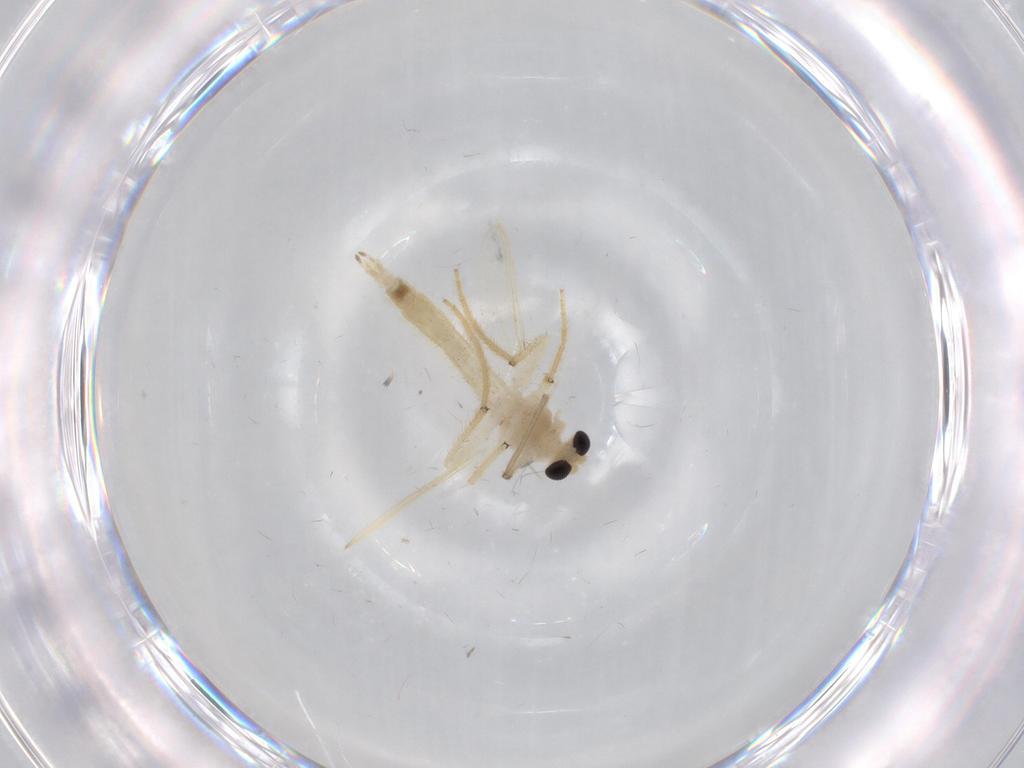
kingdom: Animalia
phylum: Arthropoda
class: Insecta
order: Diptera
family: Chironomidae
